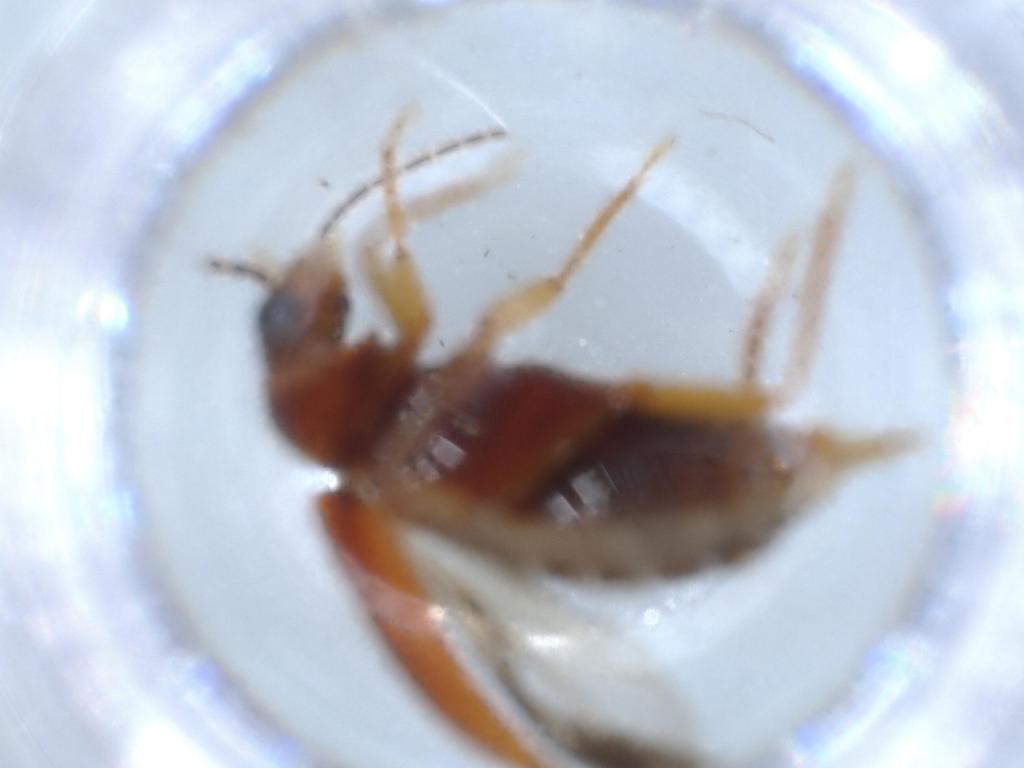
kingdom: Animalia
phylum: Arthropoda
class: Insecta
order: Coleoptera
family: Ptilodactylidae
